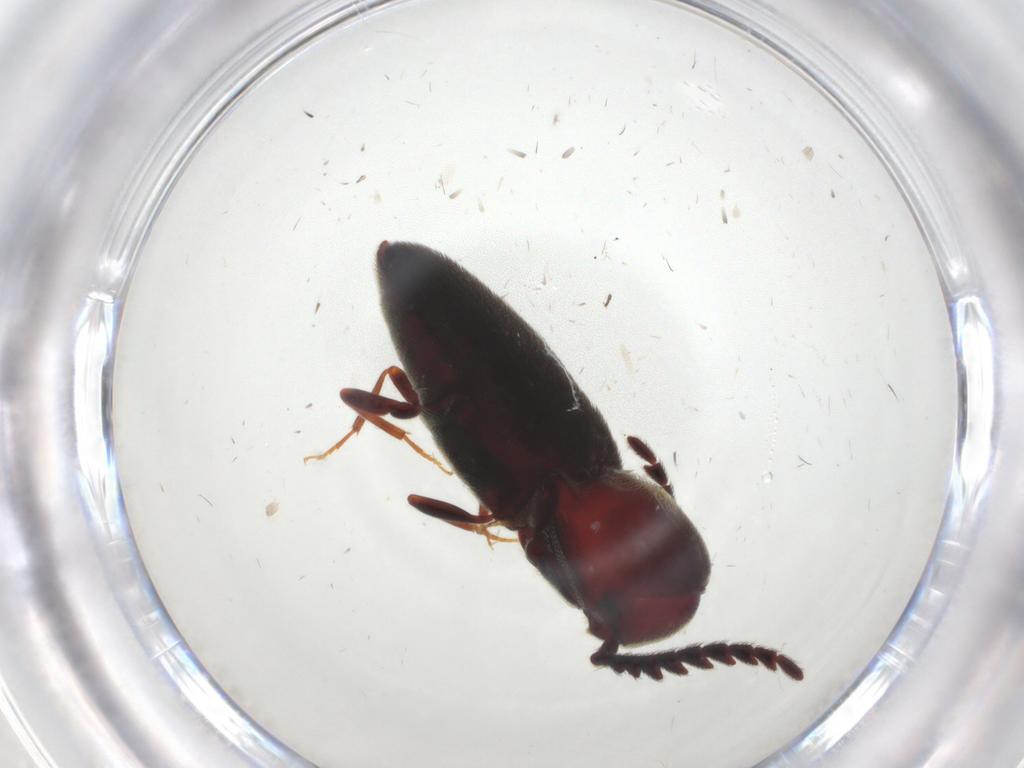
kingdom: Animalia
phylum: Arthropoda
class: Insecta
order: Coleoptera
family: Eucnemidae
